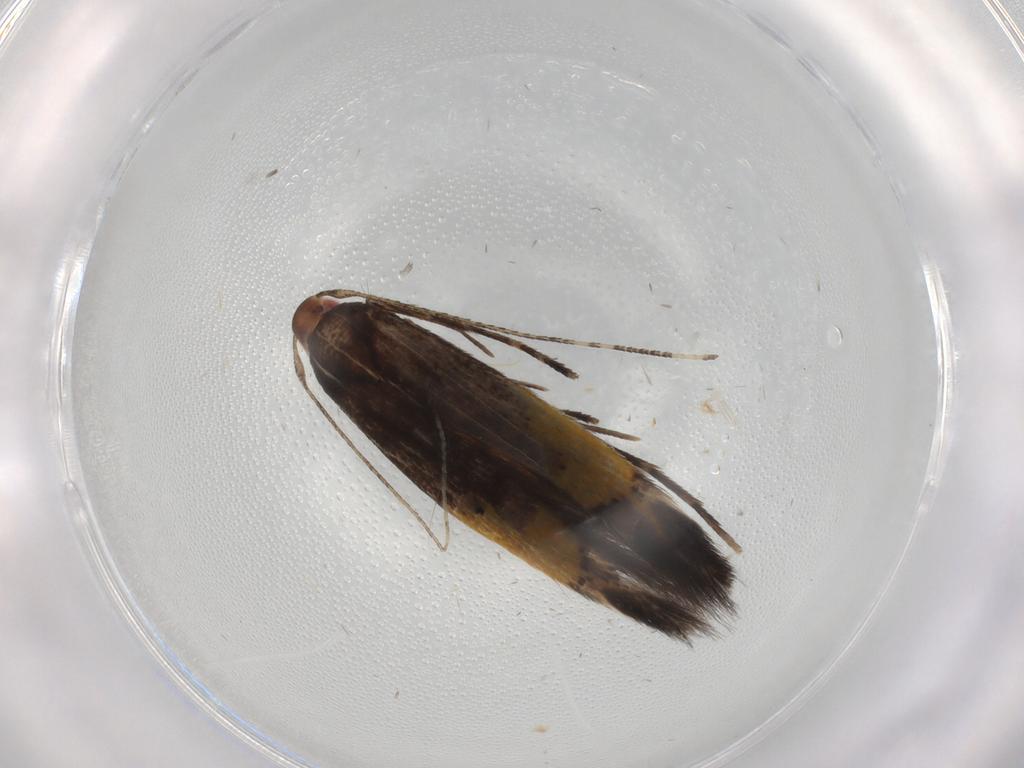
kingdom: Animalia
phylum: Arthropoda
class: Insecta
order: Lepidoptera
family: Cosmopterigidae
